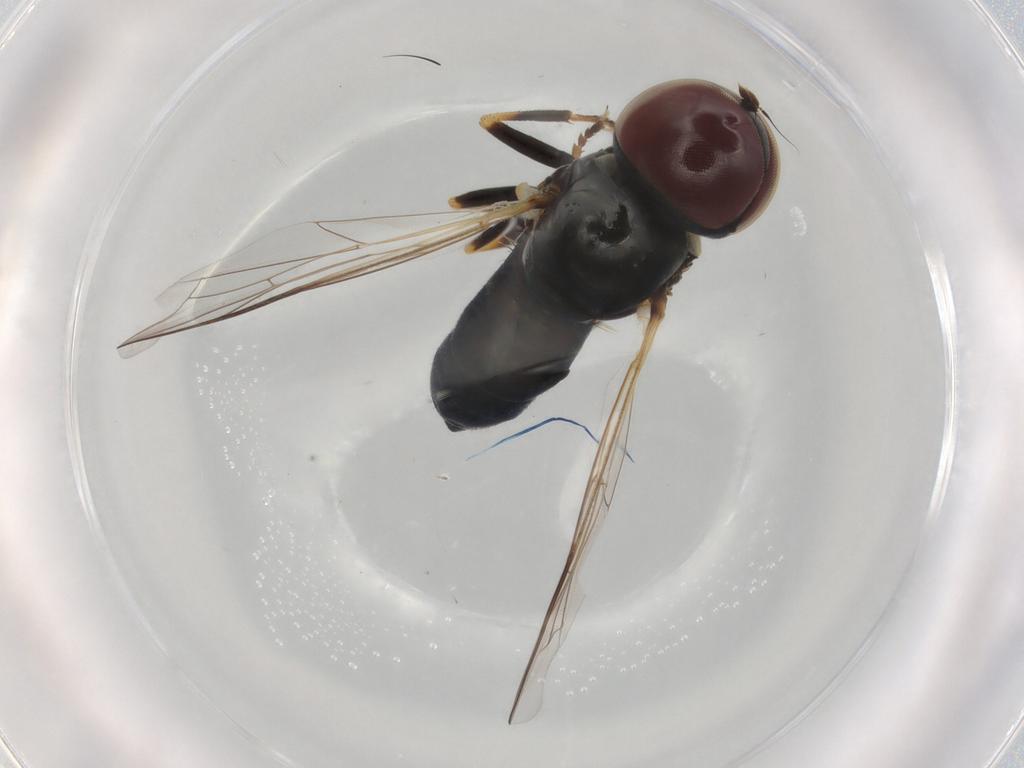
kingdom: Animalia
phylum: Arthropoda
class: Insecta
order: Diptera
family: Pipunculidae
